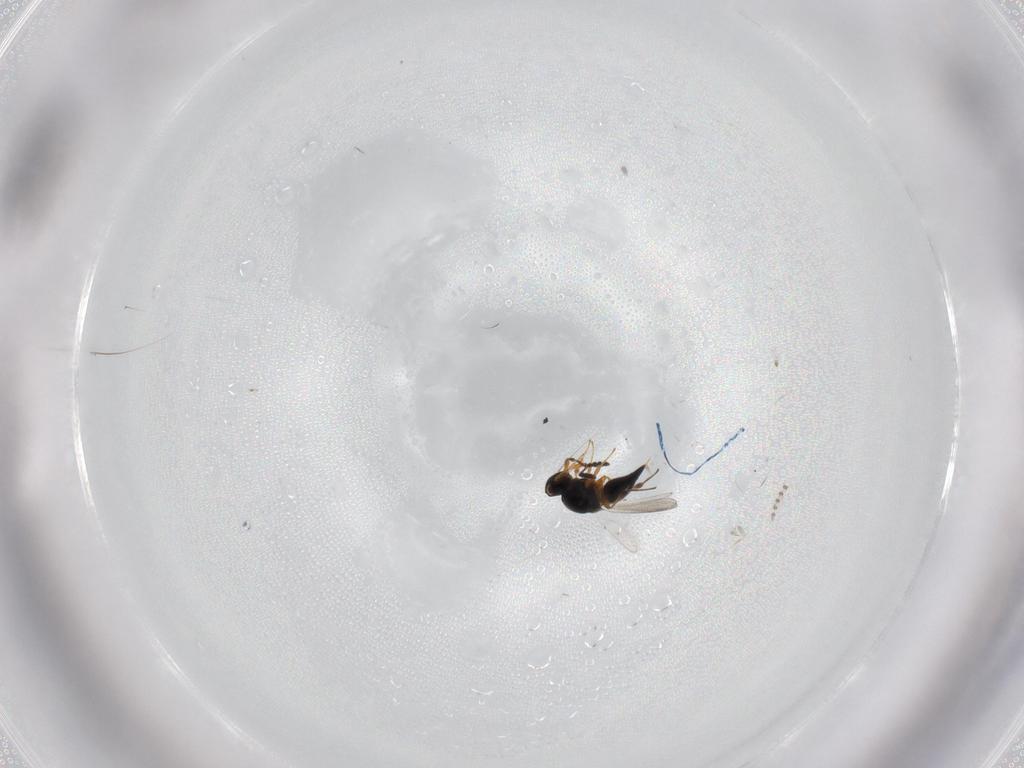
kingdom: Animalia
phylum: Arthropoda
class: Insecta
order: Hymenoptera
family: Platygastridae
